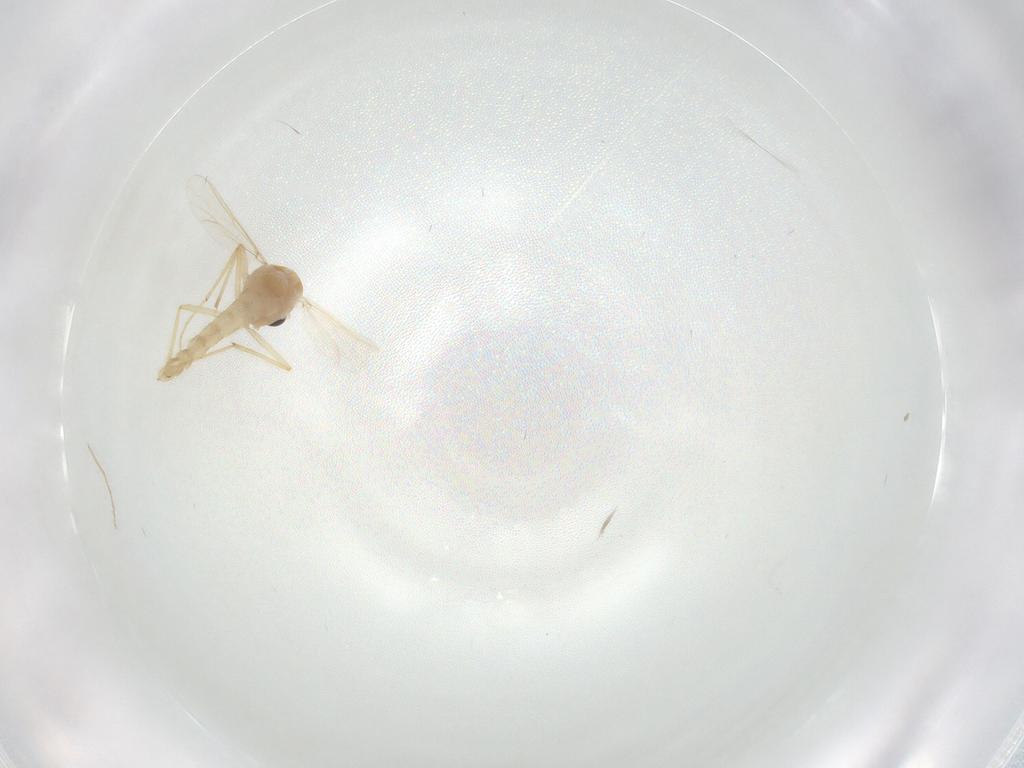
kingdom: Animalia
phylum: Arthropoda
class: Insecta
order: Diptera
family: Chironomidae
